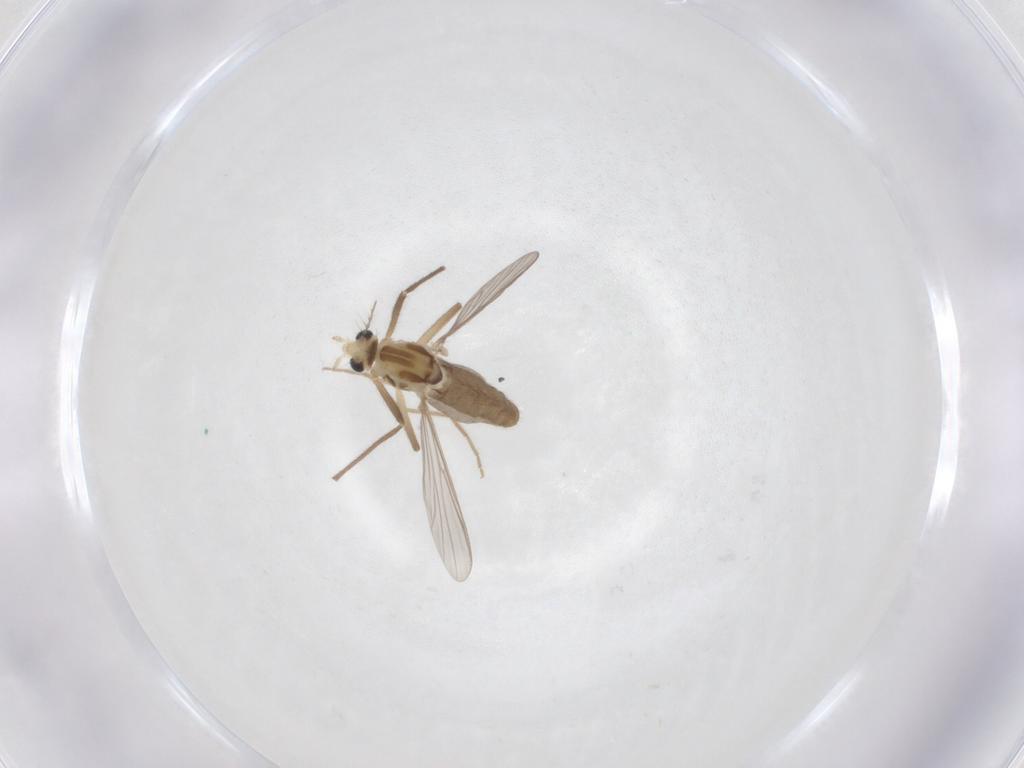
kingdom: Animalia
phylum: Arthropoda
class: Insecta
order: Diptera
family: Chironomidae
